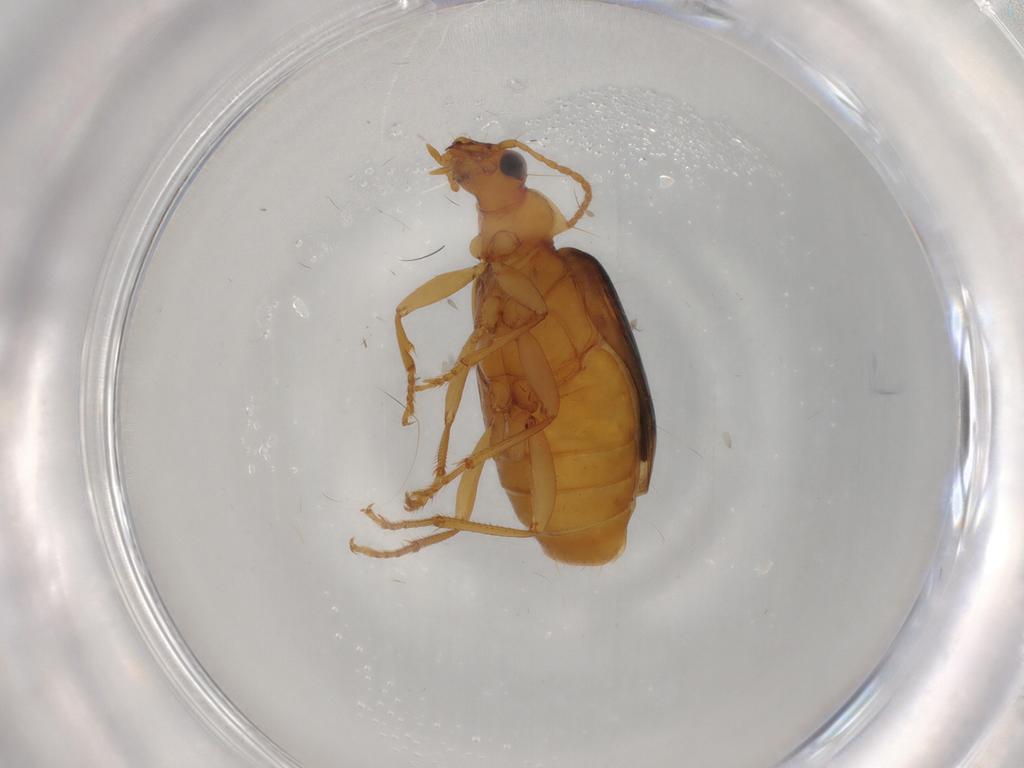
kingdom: Animalia
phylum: Arthropoda
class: Insecta
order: Coleoptera
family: Carabidae
